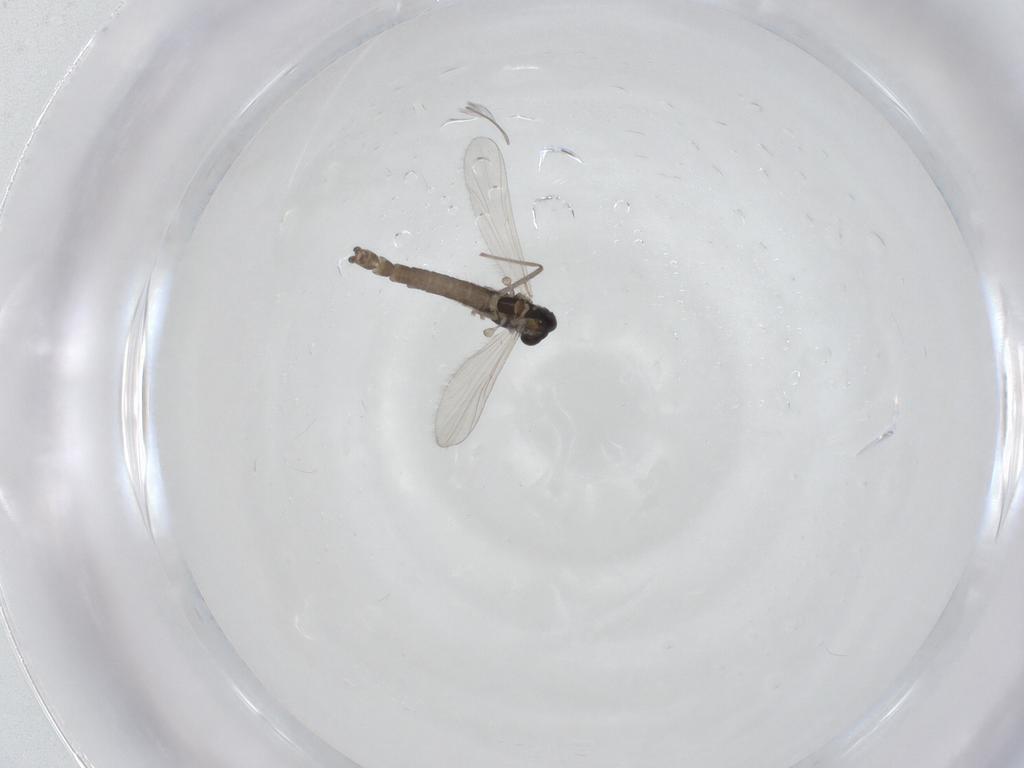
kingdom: Animalia
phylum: Arthropoda
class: Insecta
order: Diptera
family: Chironomidae
